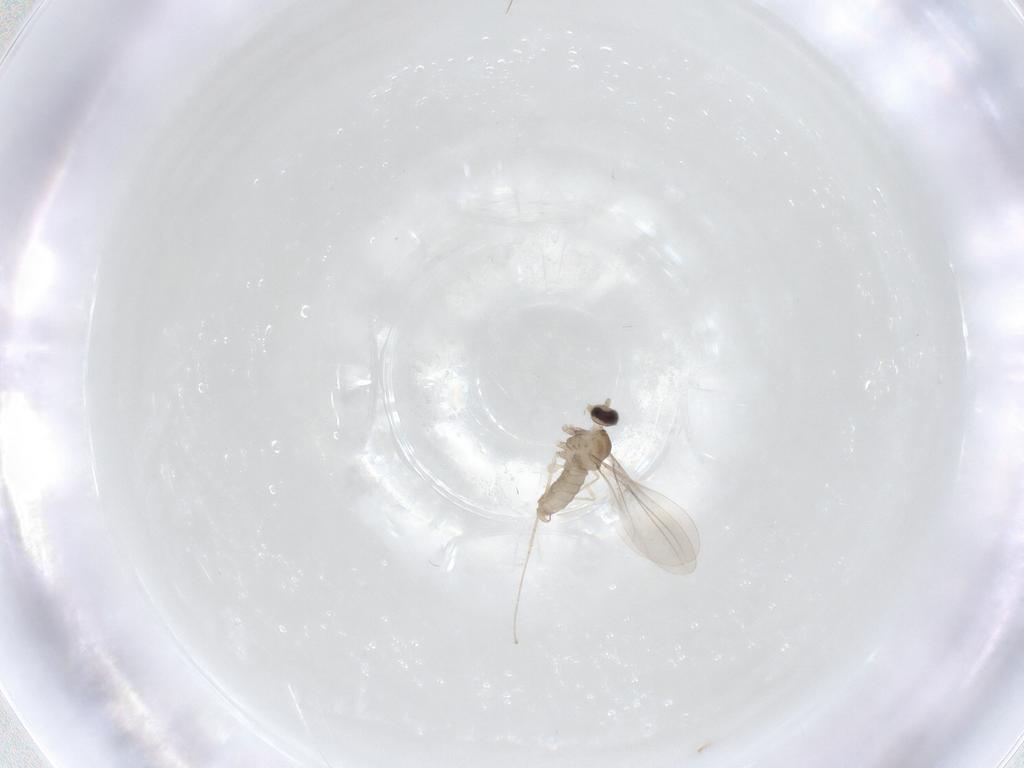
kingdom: Animalia
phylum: Arthropoda
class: Insecta
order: Diptera
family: Cecidomyiidae
